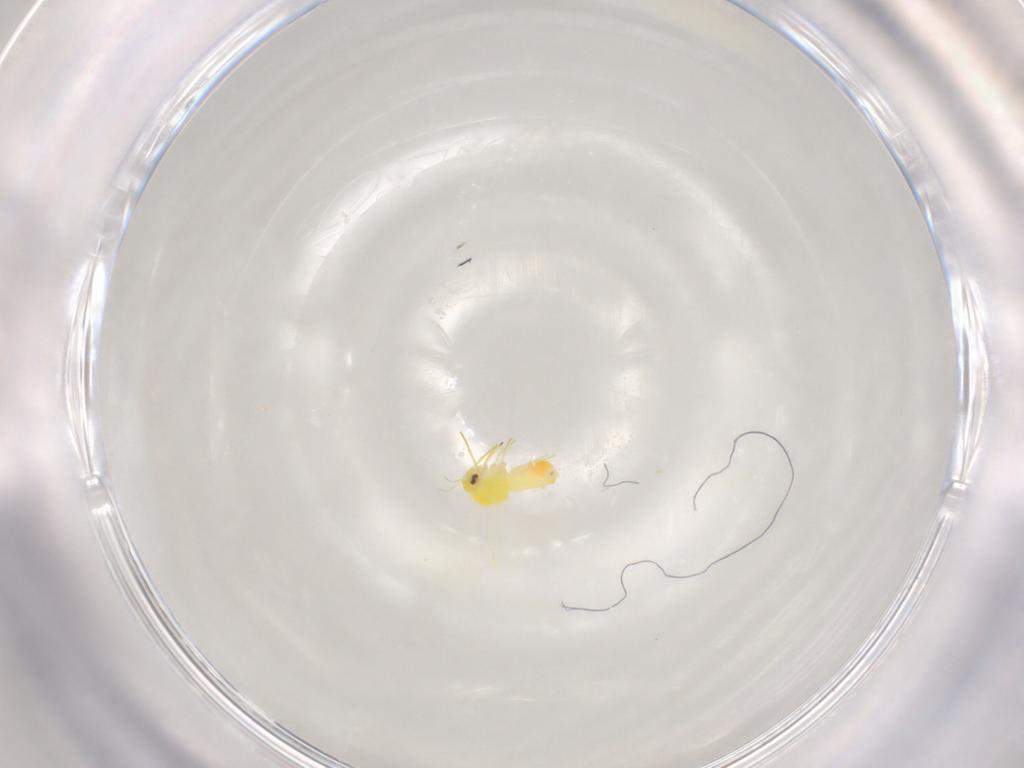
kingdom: Animalia
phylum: Arthropoda
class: Insecta
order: Hemiptera
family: Aleyrodidae
